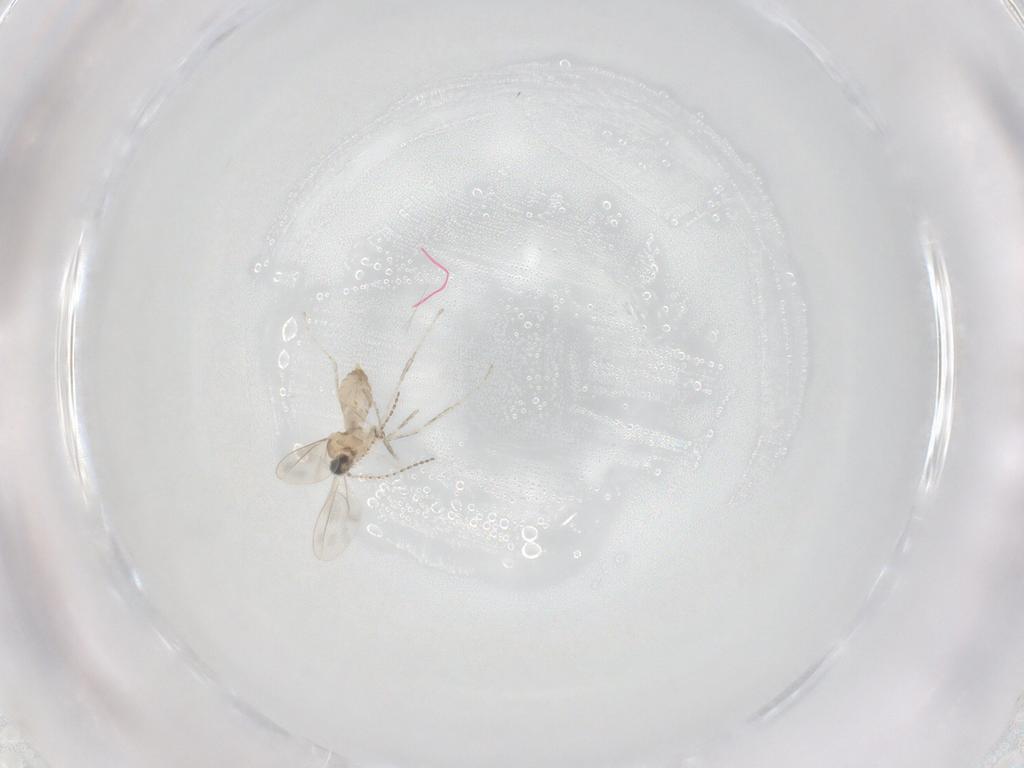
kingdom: Animalia
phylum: Arthropoda
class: Insecta
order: Diptera
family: Cecidomyiidae
